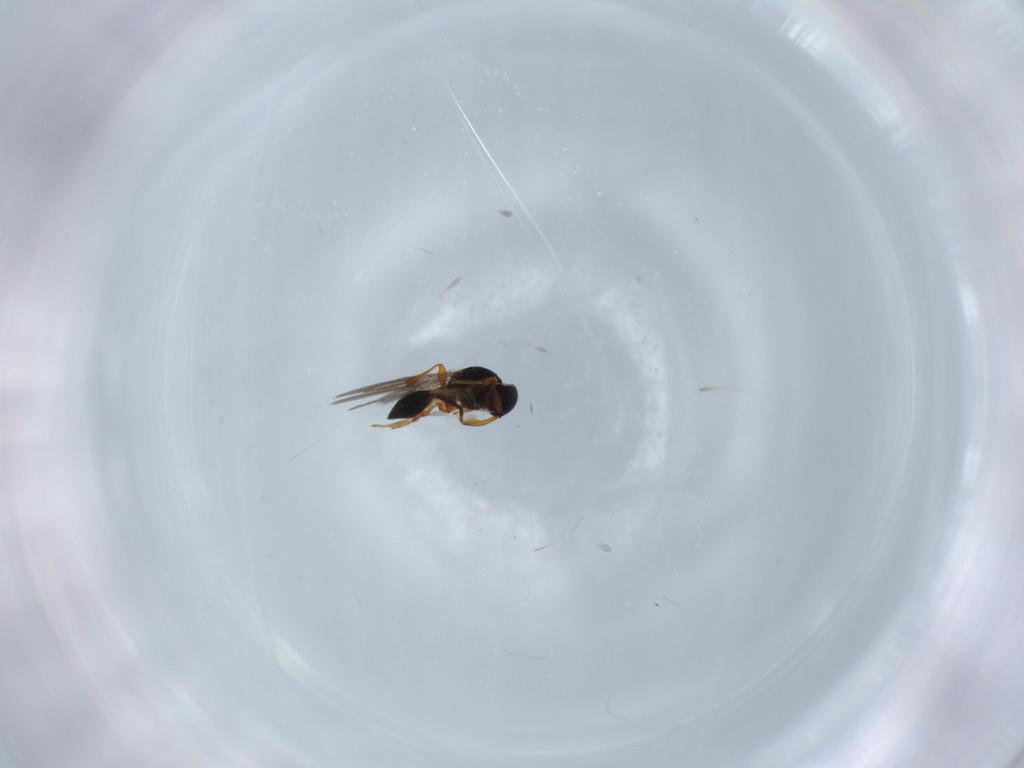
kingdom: Animalia
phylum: Arthropoda
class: Insecta
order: Hymenoptera
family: Platygastridae
